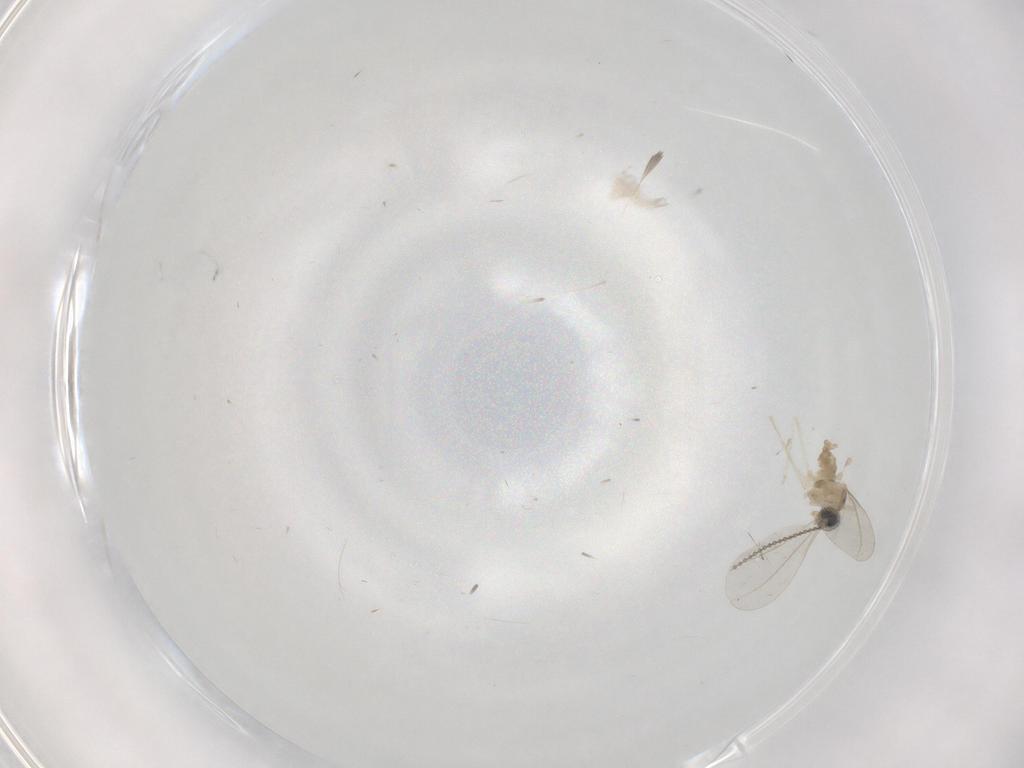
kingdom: Animalia
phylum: Arthropoda
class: Insecta
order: Diptera
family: Cecidomyiidae
